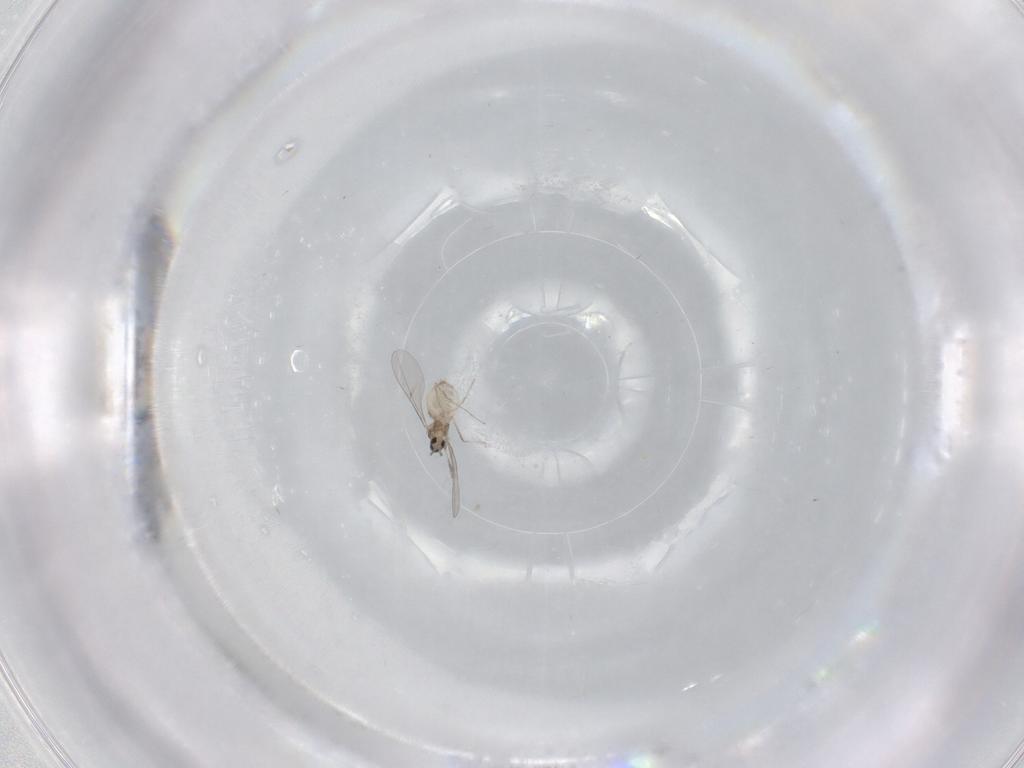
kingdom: Animalia
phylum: Arthropoda
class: Insecta
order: Diptera
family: Cecidomyiidae
